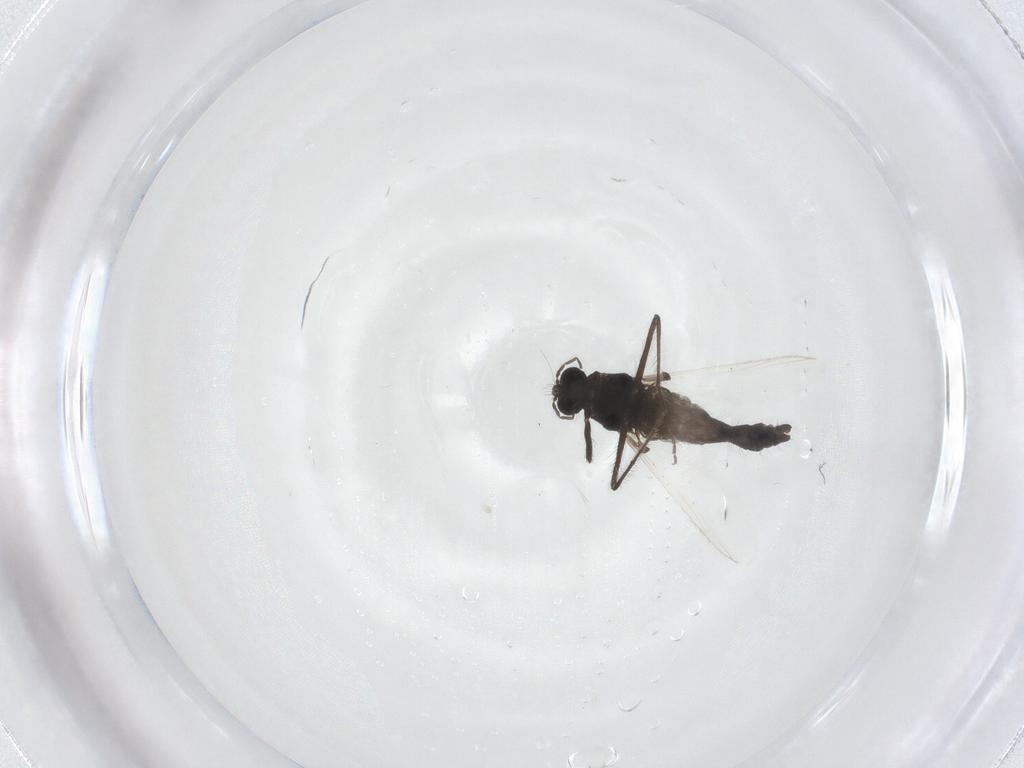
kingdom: Animalia
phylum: Arthropoda
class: Insecta
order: Diptera
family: Chironomidae
